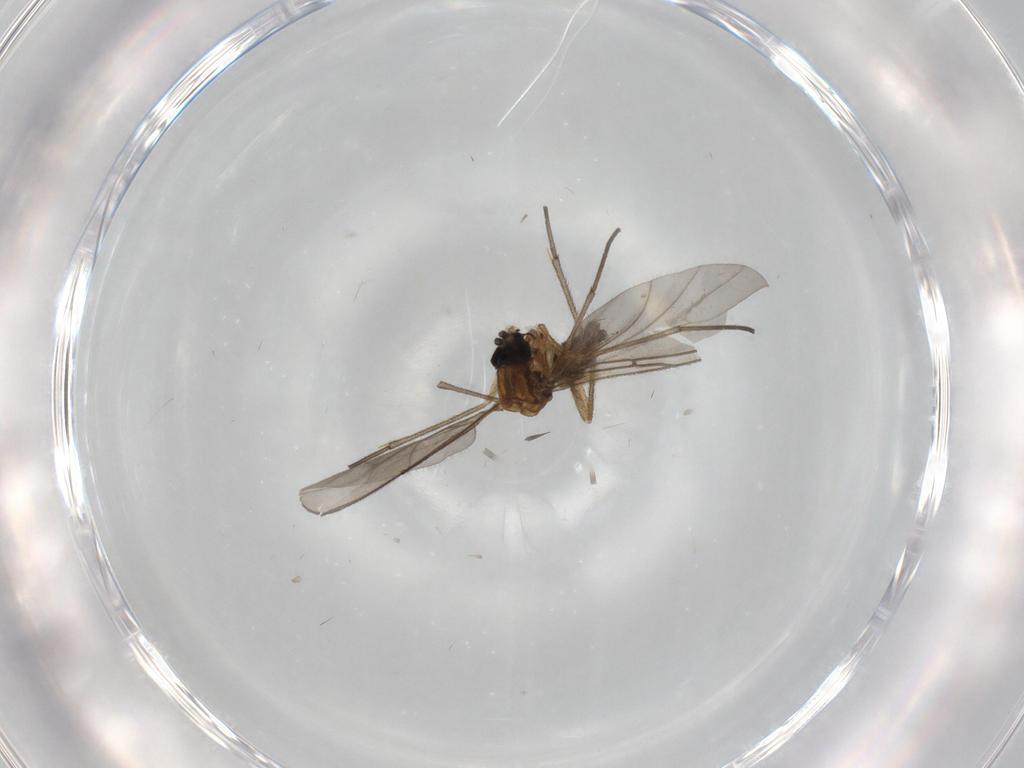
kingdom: Animalia
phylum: Arthropoda
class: Insecta
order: Diptera
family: Sciaridae
